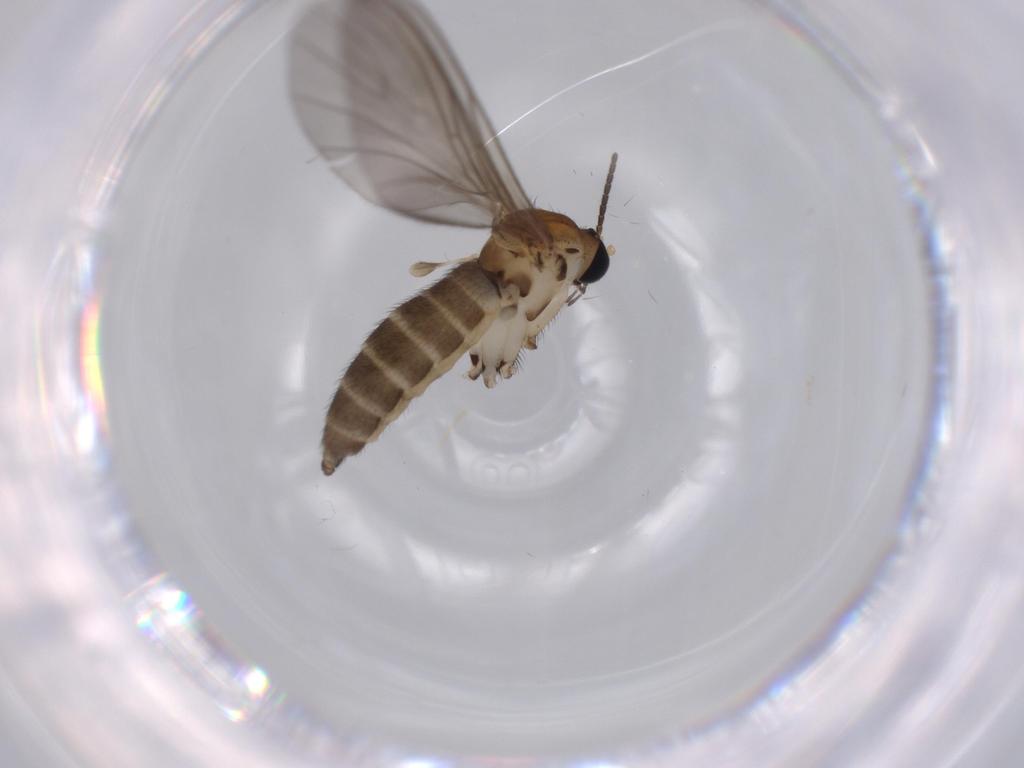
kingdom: Animalia
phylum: Arthropoda
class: Insecta
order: Diptera
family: Sciaridae
